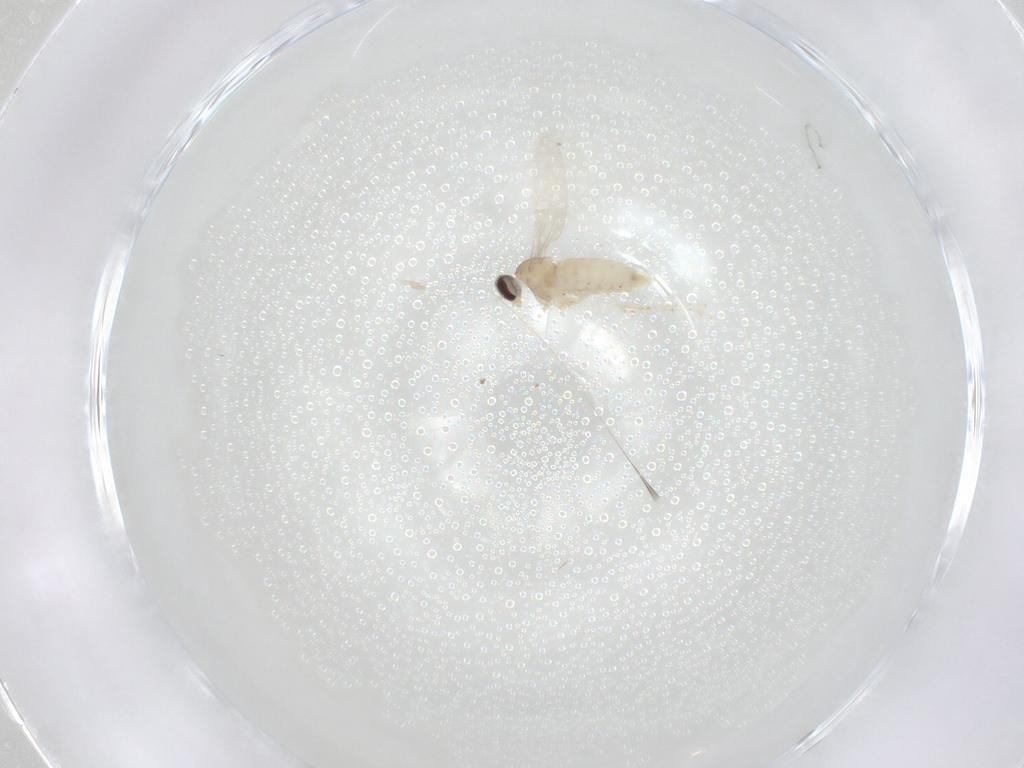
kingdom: Animalia
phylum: Arthropoda
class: Insecta
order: Diptera
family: Cecidomyiidae
